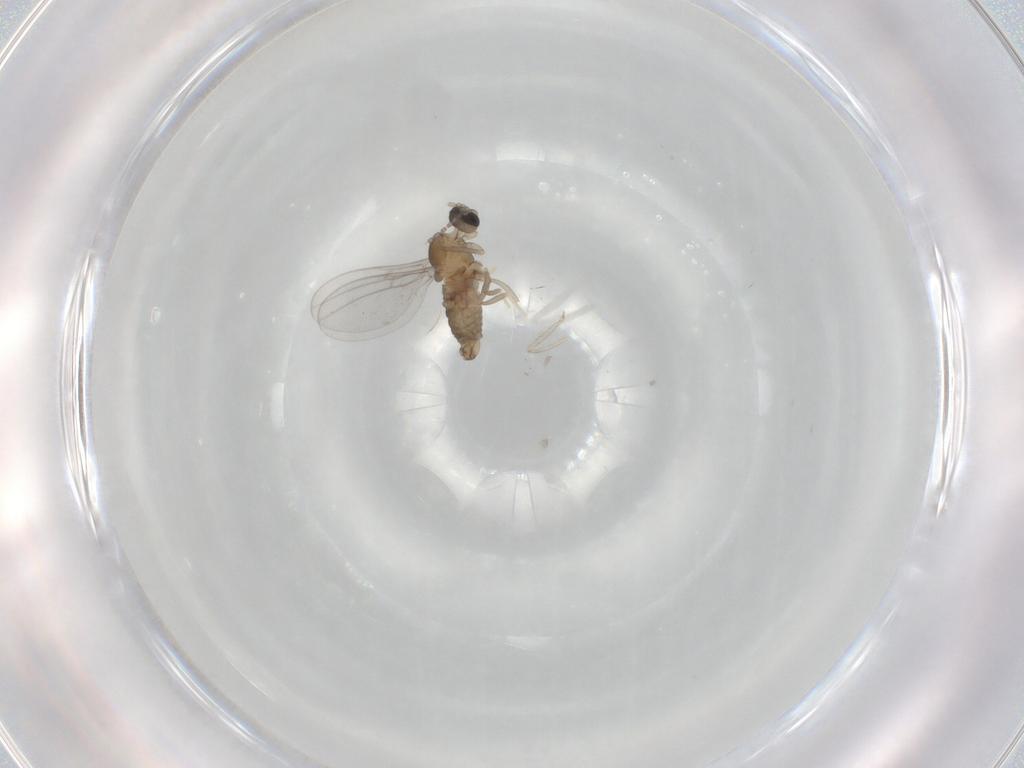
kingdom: Animalia
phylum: Arthropoda
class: Insecta
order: Diptera
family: Cecidomyiidae
